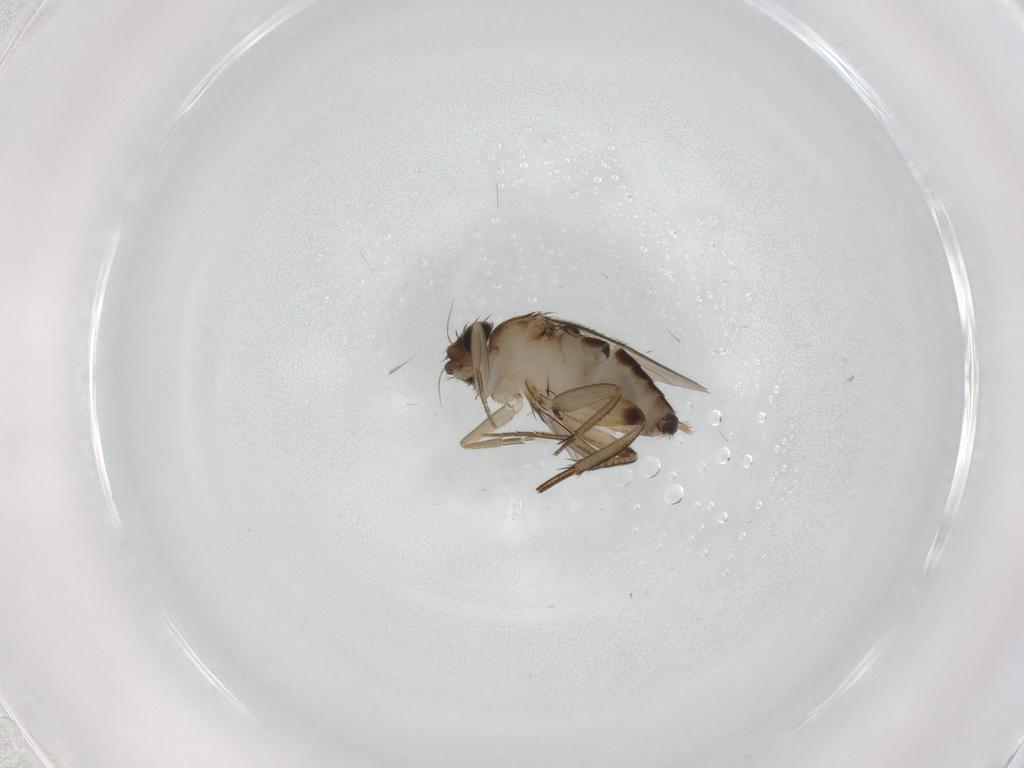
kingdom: Animalia
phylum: Arthropoda
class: Insecta
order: Diptera
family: Phoridae
